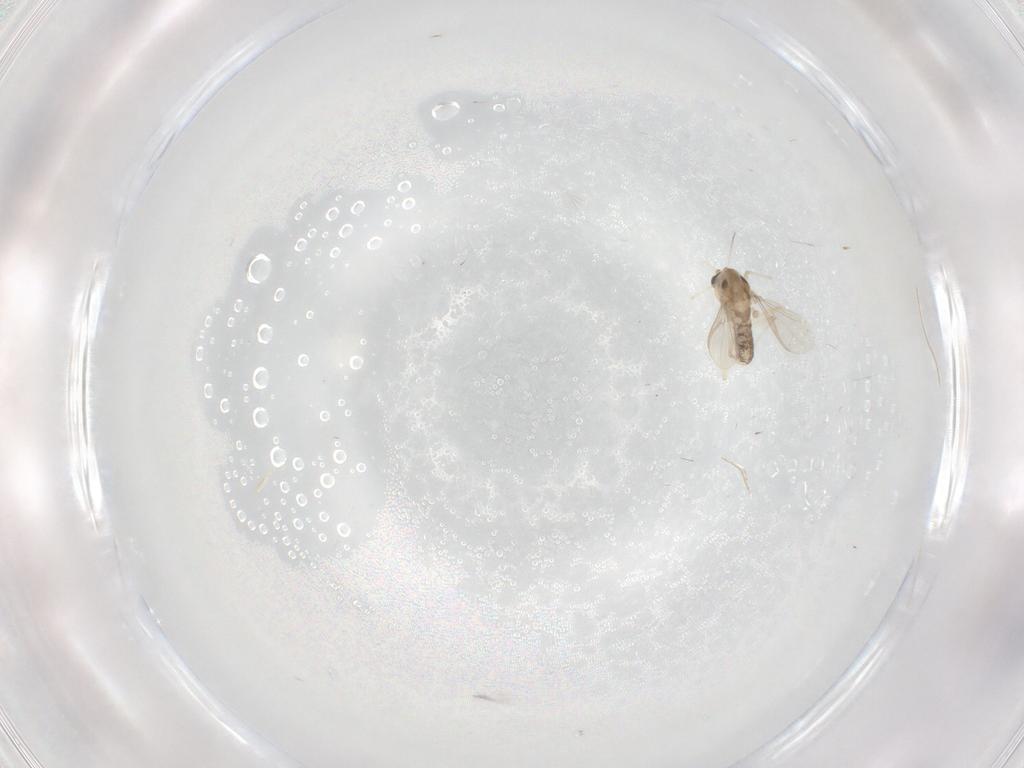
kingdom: Animalia
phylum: Arthropoda
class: Insecta
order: Diptera
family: Chironomidae
